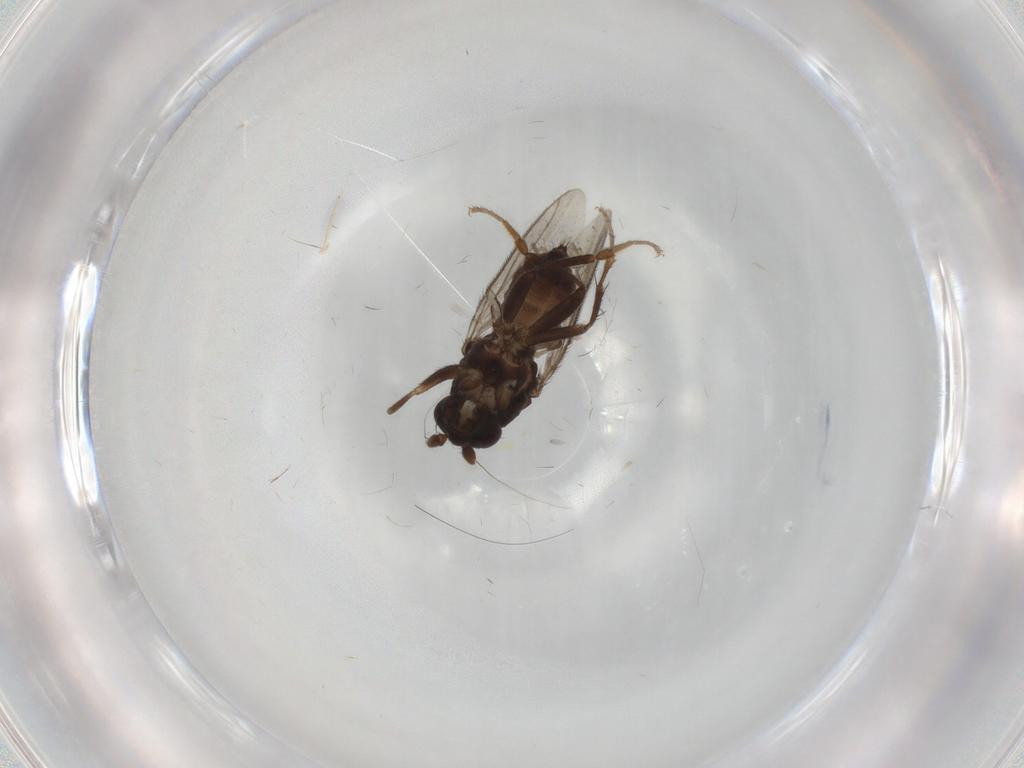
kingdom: Animalia
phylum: Arthropoda
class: Insecta
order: Diptera
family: Sphaeroceridae
